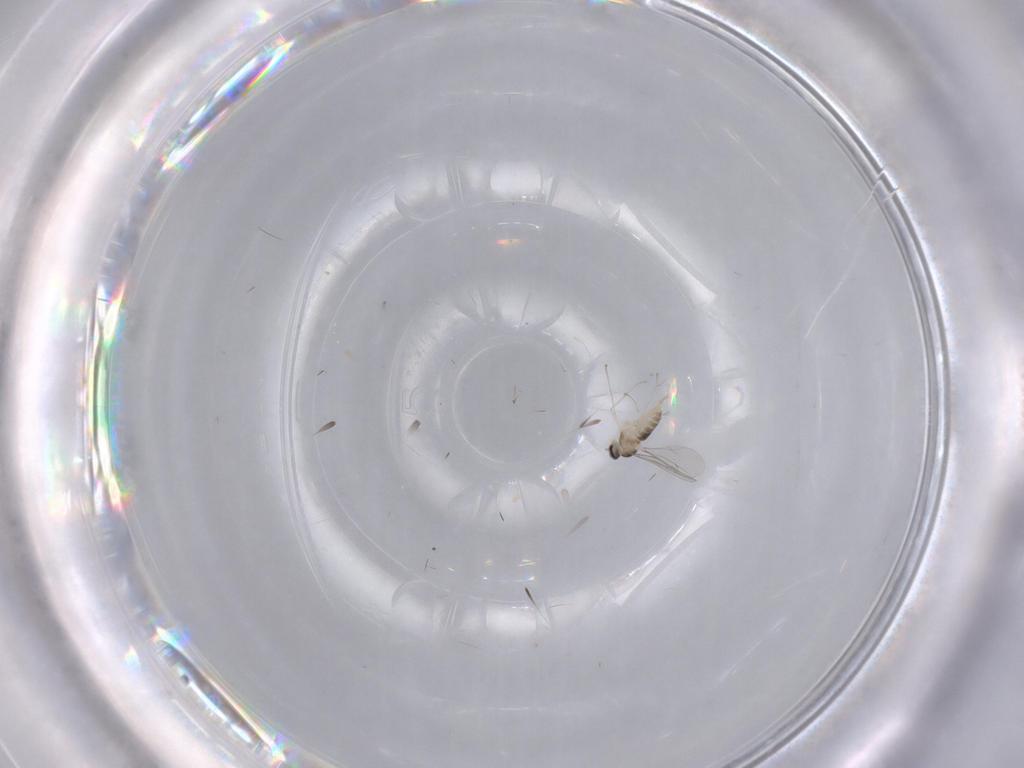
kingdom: Animalia
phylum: Arthropoda
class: Insecta
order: Diptera
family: Cecidomyiidae
